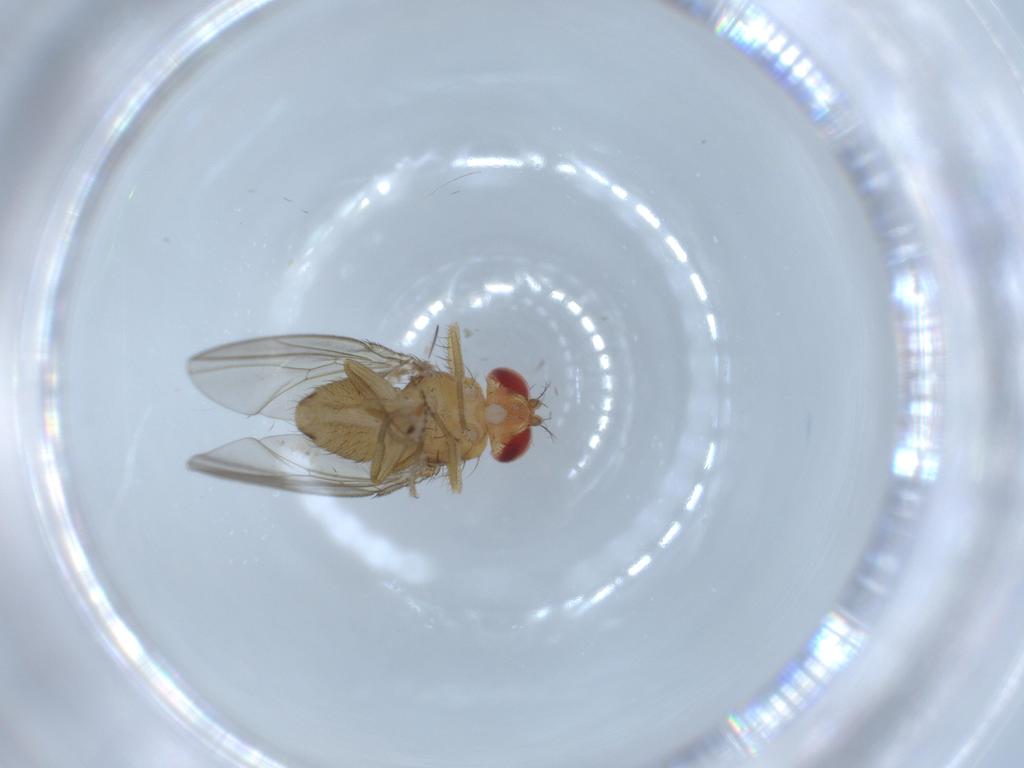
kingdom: Animalia
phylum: Arthropoda
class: Insecta
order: Diptera
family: Drosophilidae
